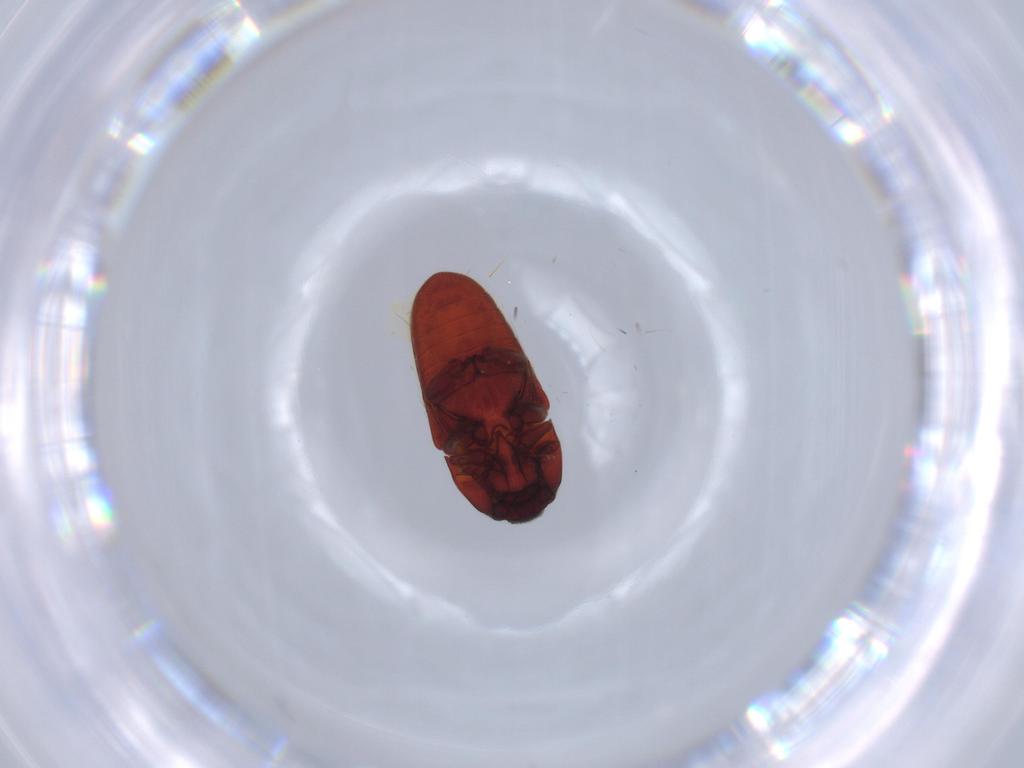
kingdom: Animalia
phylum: Arthropoda
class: Insecta
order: Coleoptera
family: Throscidae
